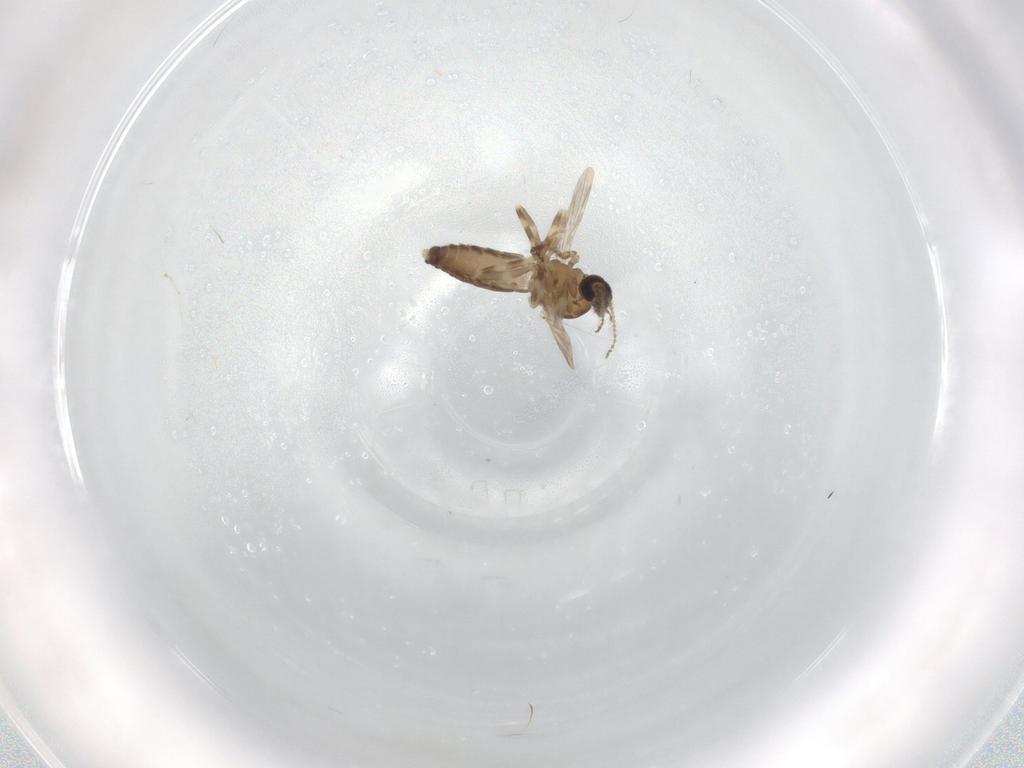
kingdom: Animalia
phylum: Arthropoda
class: Insecta
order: Diptera
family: Ceratopogonidae
